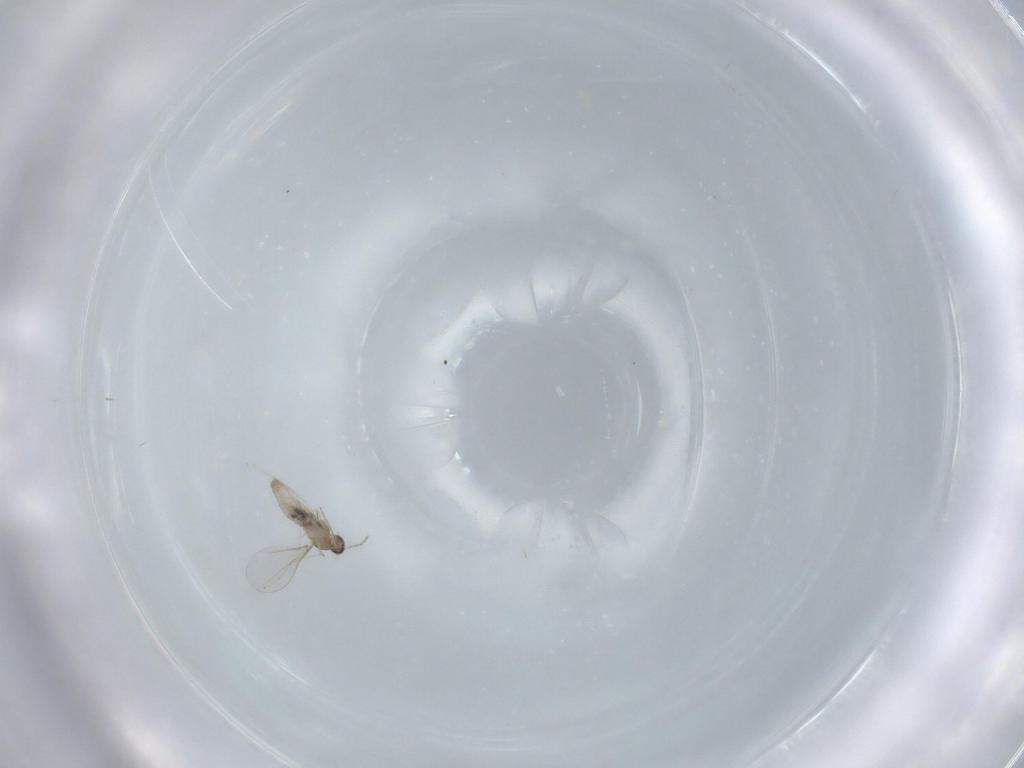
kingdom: Animalia
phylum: Arthropoda
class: Insecta
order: Diptera
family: Cecidomyiidae
